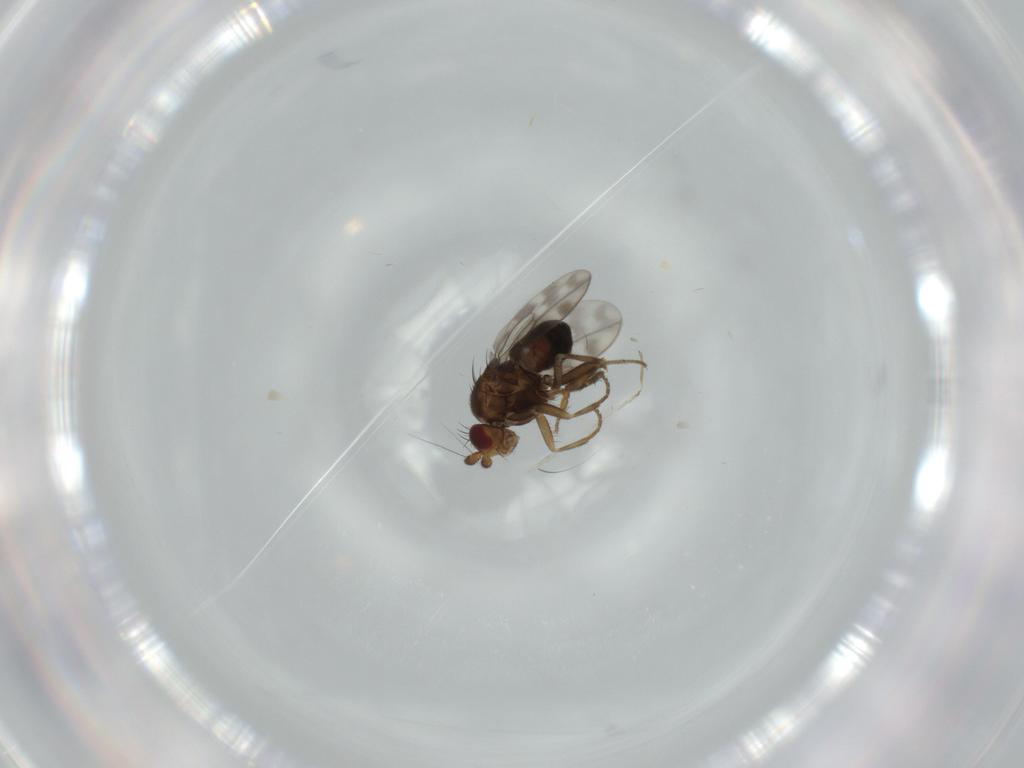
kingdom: Animalia
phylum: Arthropoda
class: Insecta
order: Diptera
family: Sphaeroceridae
